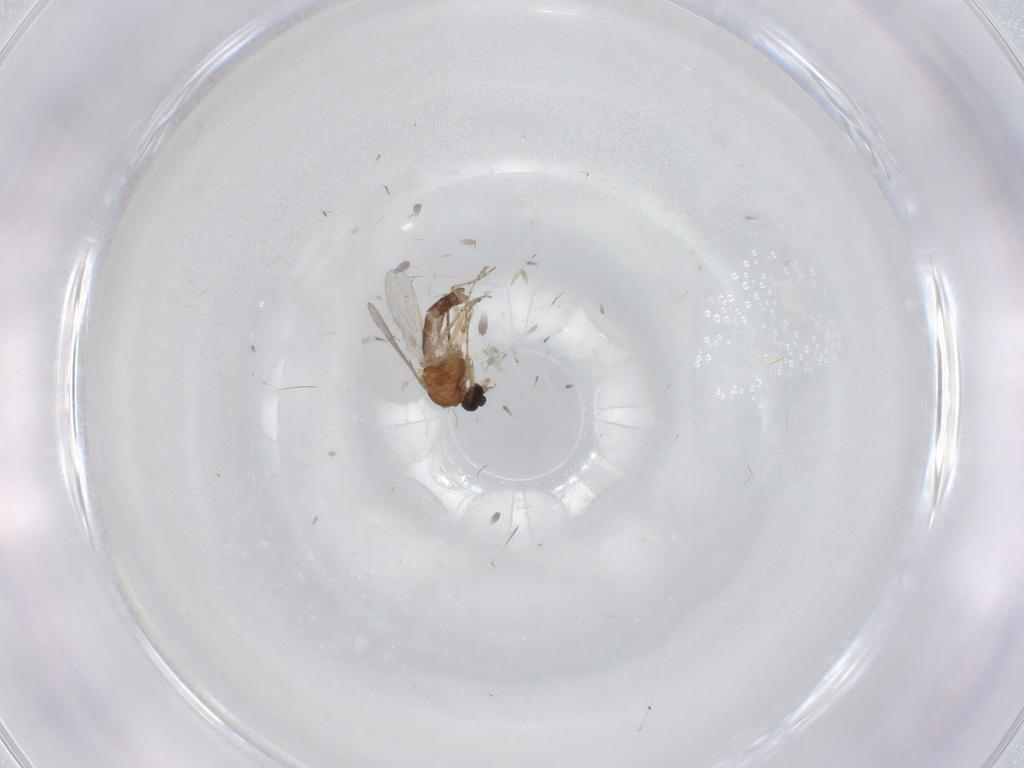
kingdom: Animalia
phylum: Arthropoda
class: Insecta
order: Diptera
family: Ceratopogonidae
